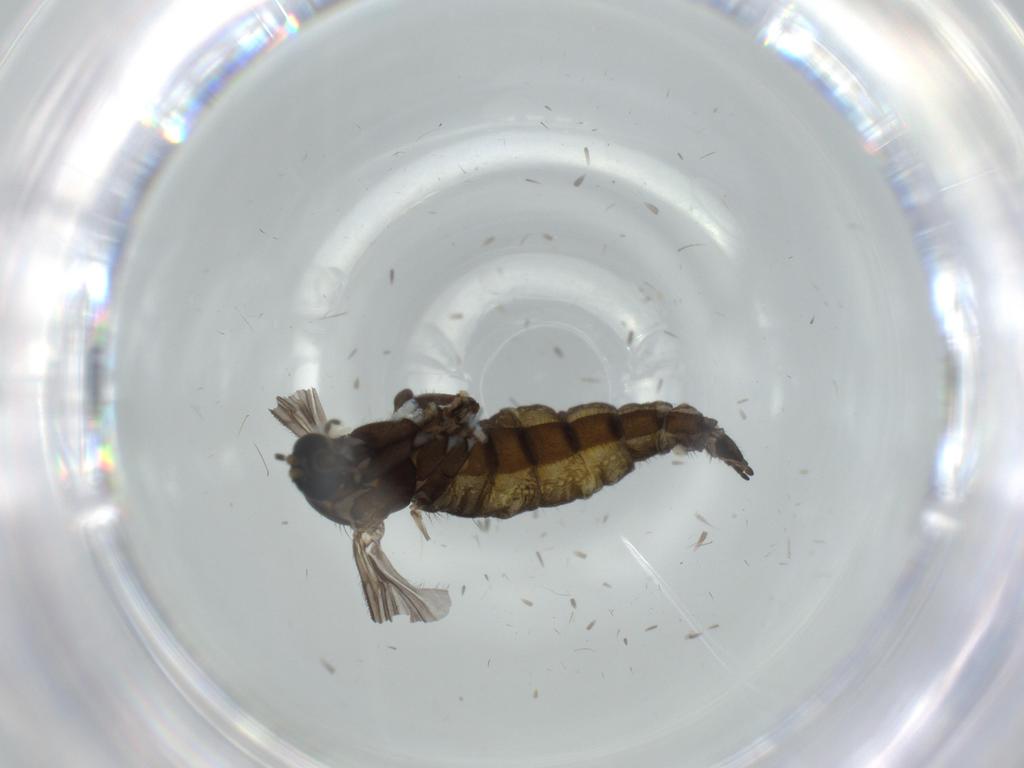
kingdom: Animalia
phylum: Arthropoda
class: Insecta
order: Diptera
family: Sciaridae
